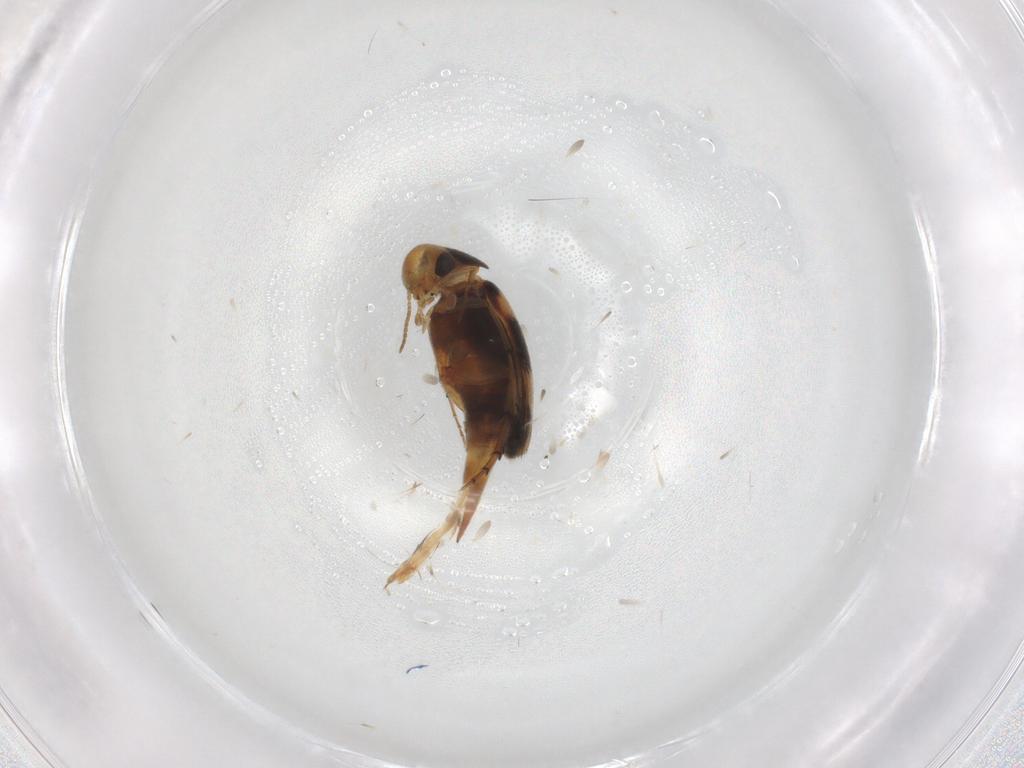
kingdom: Animalia
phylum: Arthropoda
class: Insecta
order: Coleoptera
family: Mordellidae
